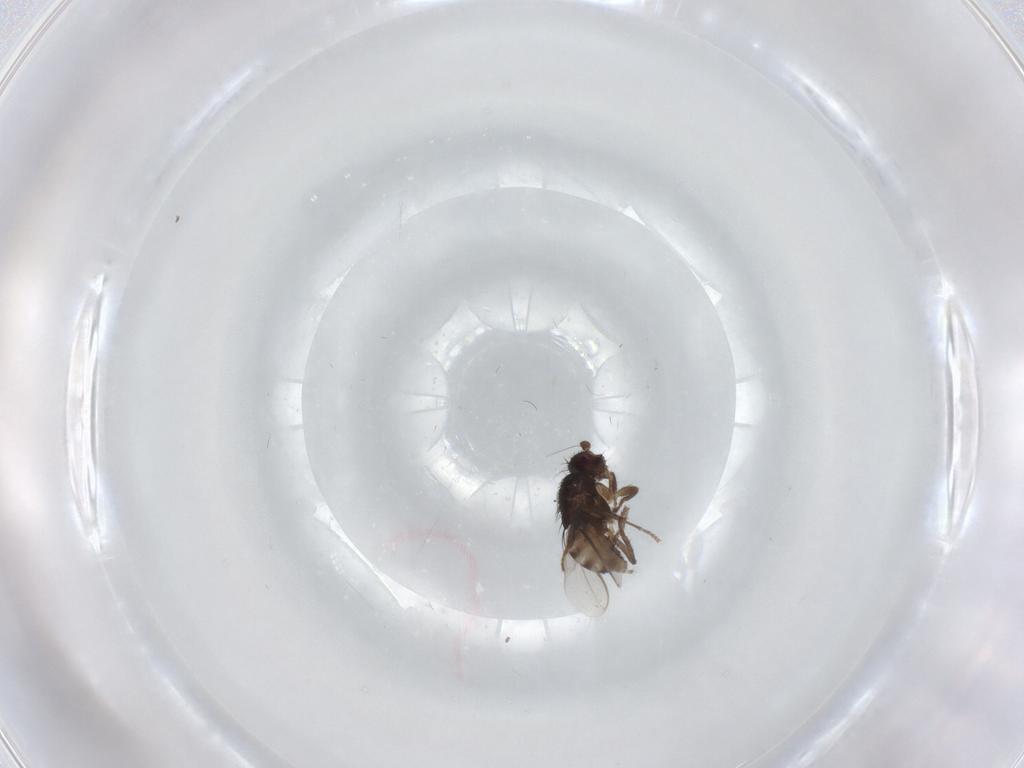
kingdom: Animalia
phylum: Arthropoda
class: Insecta
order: Diptera
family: Sphaeroceridae
